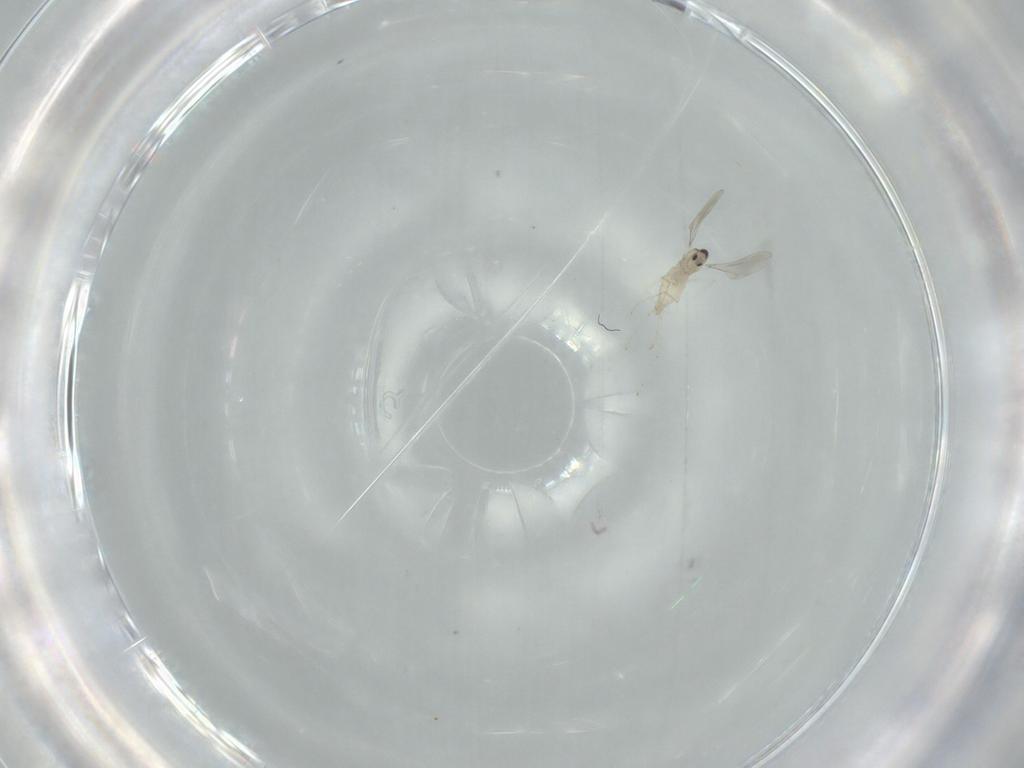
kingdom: Animalia
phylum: Arthropoda
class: Insecta
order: Diptera
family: Cecidomyiidae
